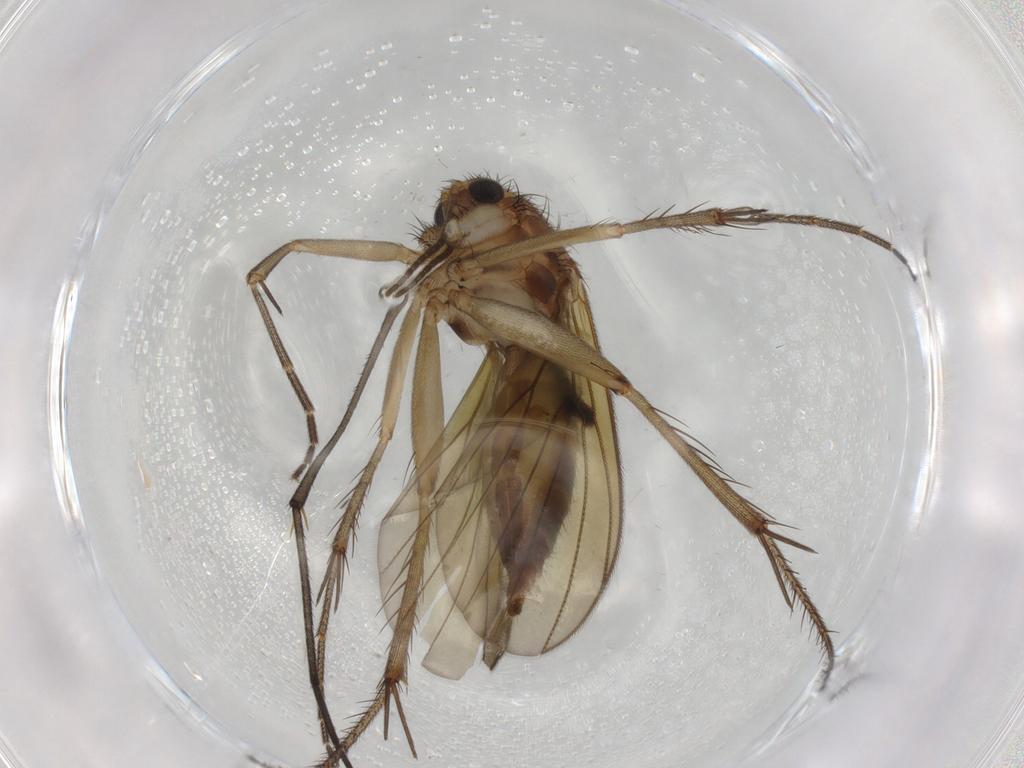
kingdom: Animalia
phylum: Arthropoda
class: Insecta
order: Diptera
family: Mycetophilidae
